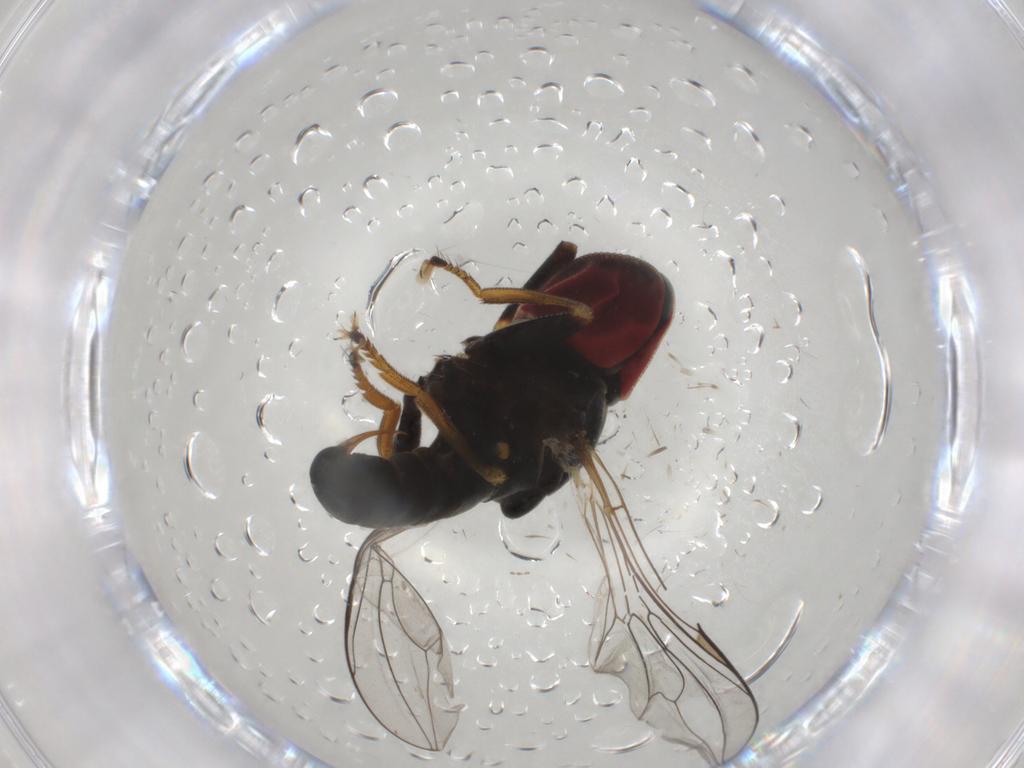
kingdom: Animalia
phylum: Arthropoda
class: Insecta
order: Diptera
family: Pipunculidae
